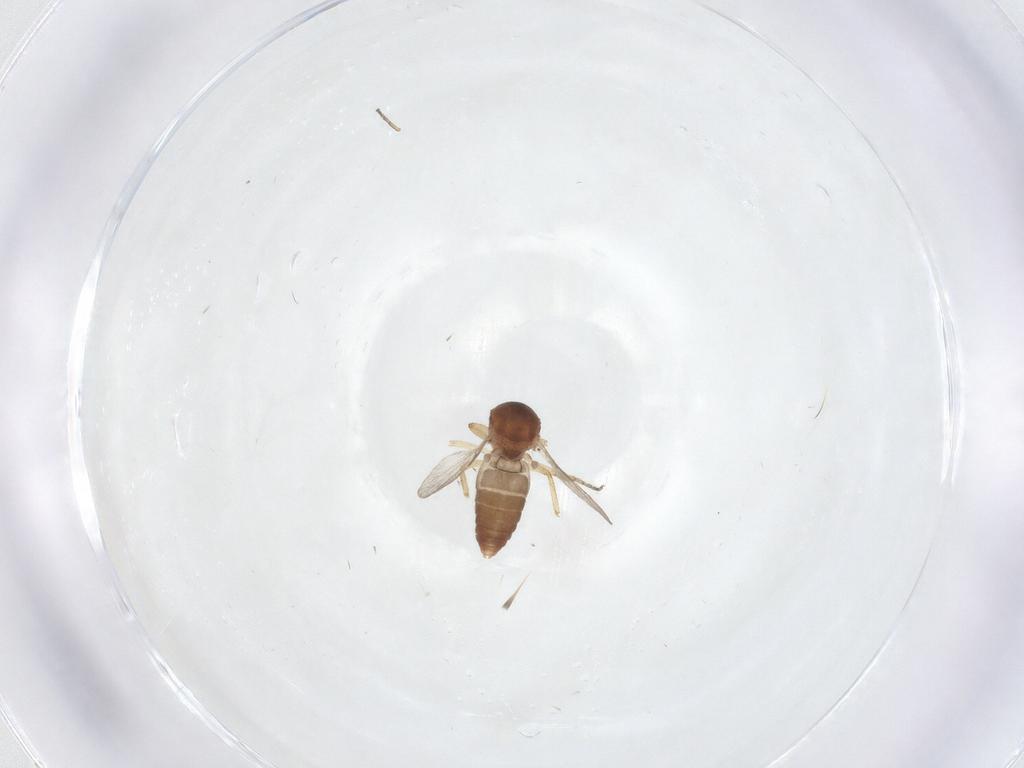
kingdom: Animalia
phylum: Arthropoda
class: Insecta
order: Diptera
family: Ceratopogonidae
